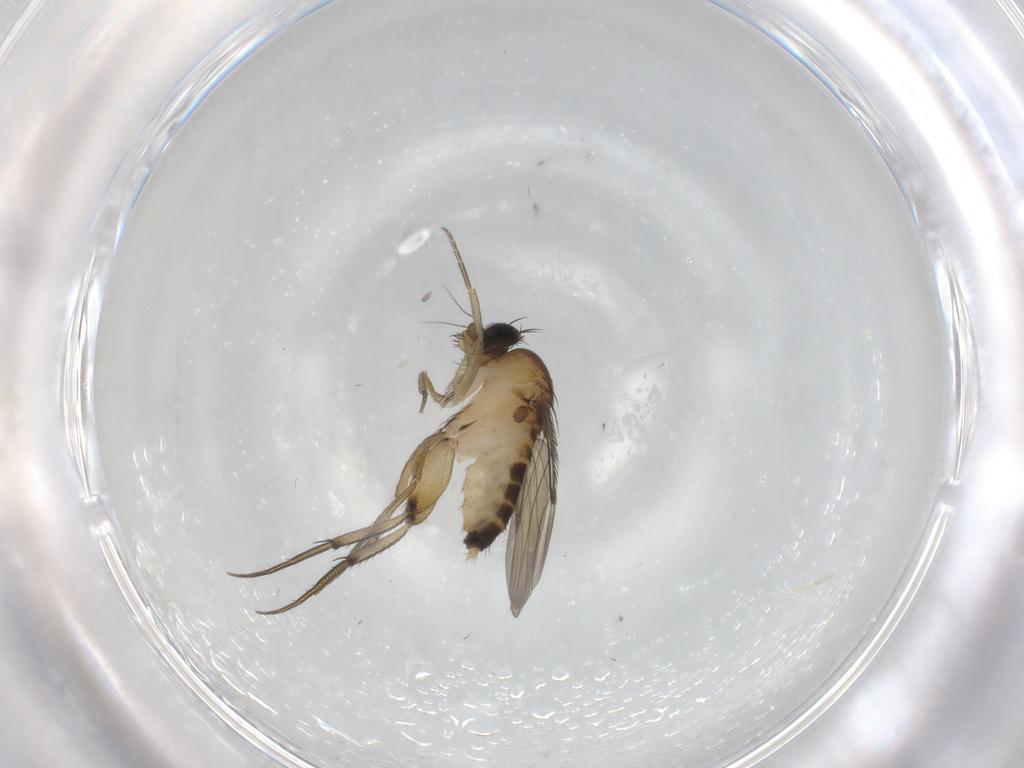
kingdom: Animalia
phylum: Arthropoda
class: Insecta
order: Diptera
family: Phoridae
